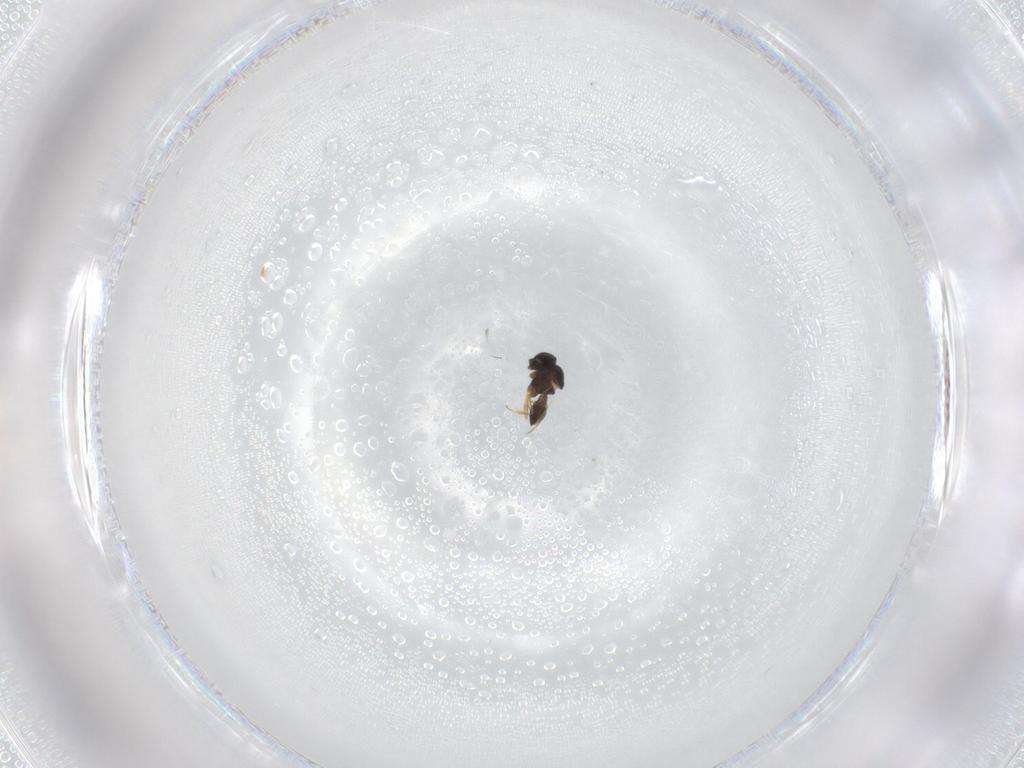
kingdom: Animalia
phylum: Arthropoda
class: Insecta
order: Hymenoptera
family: Scelionidae
